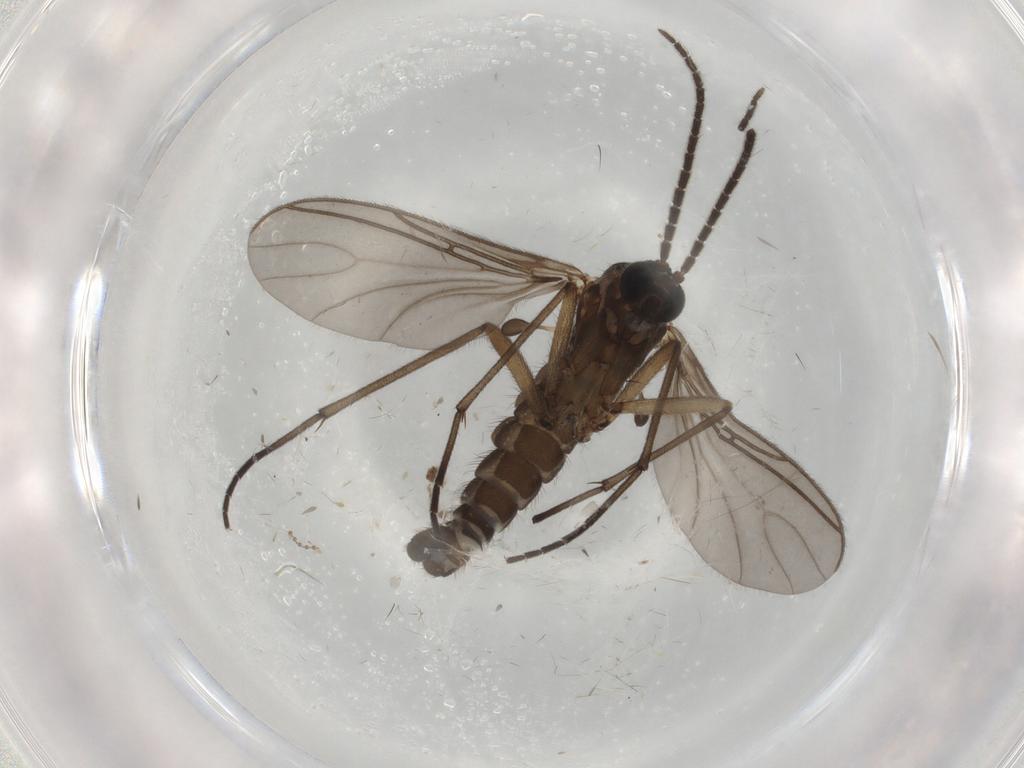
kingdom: Animalia
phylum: Arthropoda
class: Insecta
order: Diptera
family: Sciaridae
